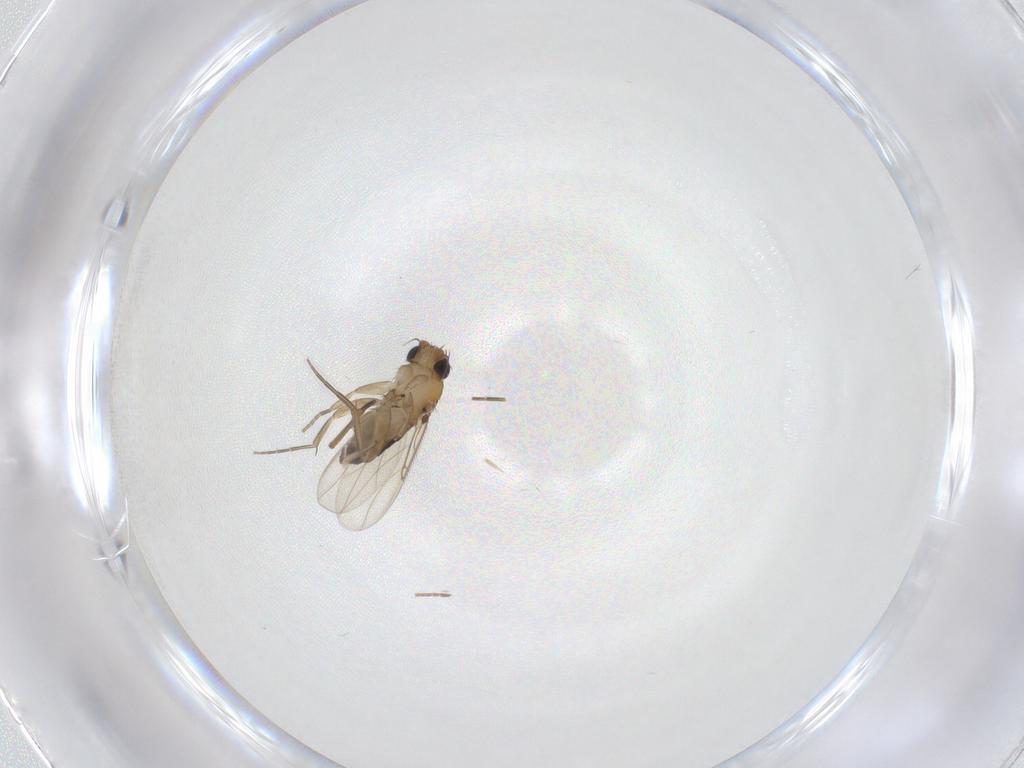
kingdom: Animalia
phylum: Arthropoda
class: Insecta
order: Diptera
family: Phoridae
